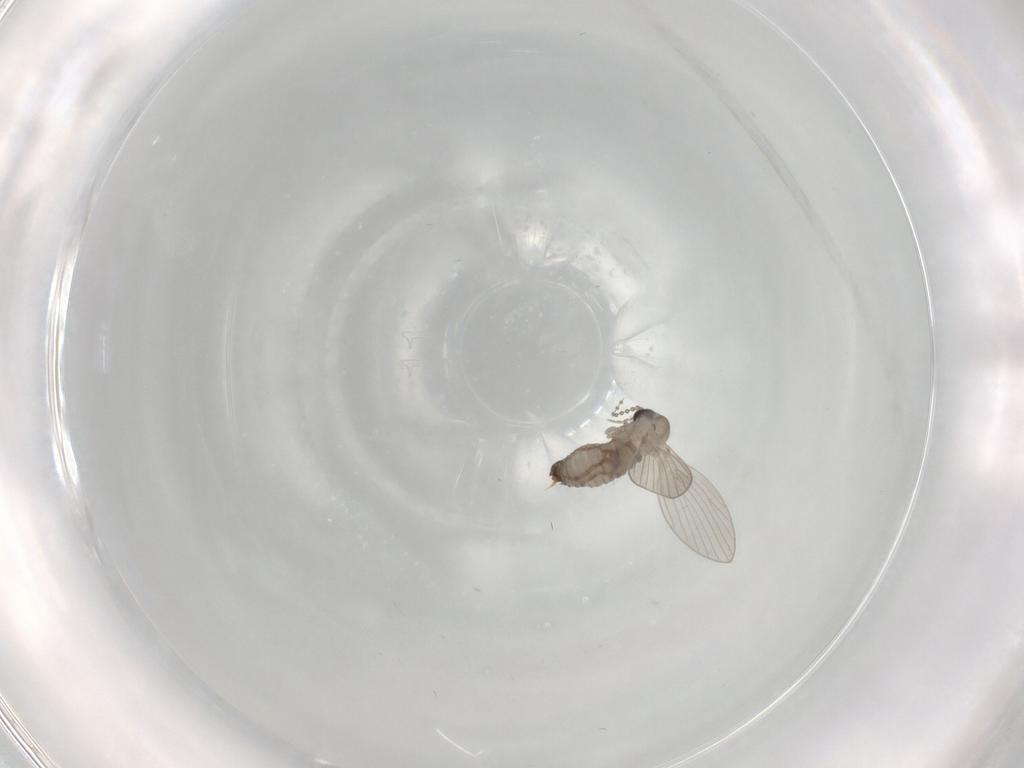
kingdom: Animalia
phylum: Arthropoda
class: Insecta
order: Diptera
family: Psychodidae
